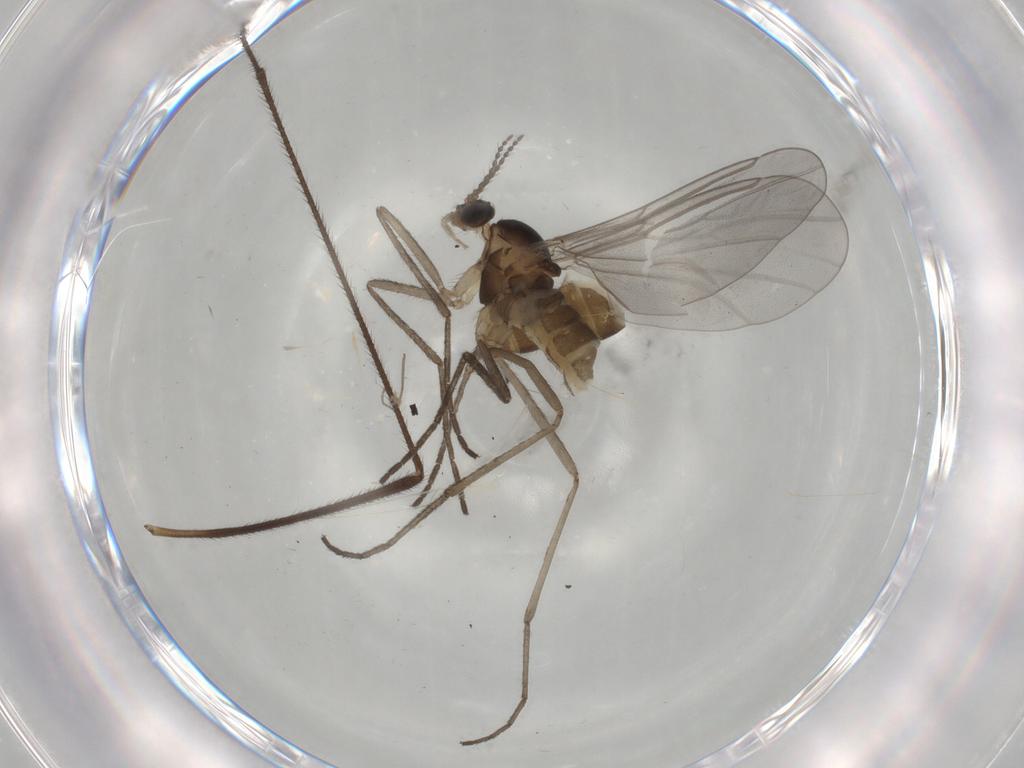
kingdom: Animalia
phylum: Arthropoda
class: Insecta
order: Diptera
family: Cecidomyiidae
